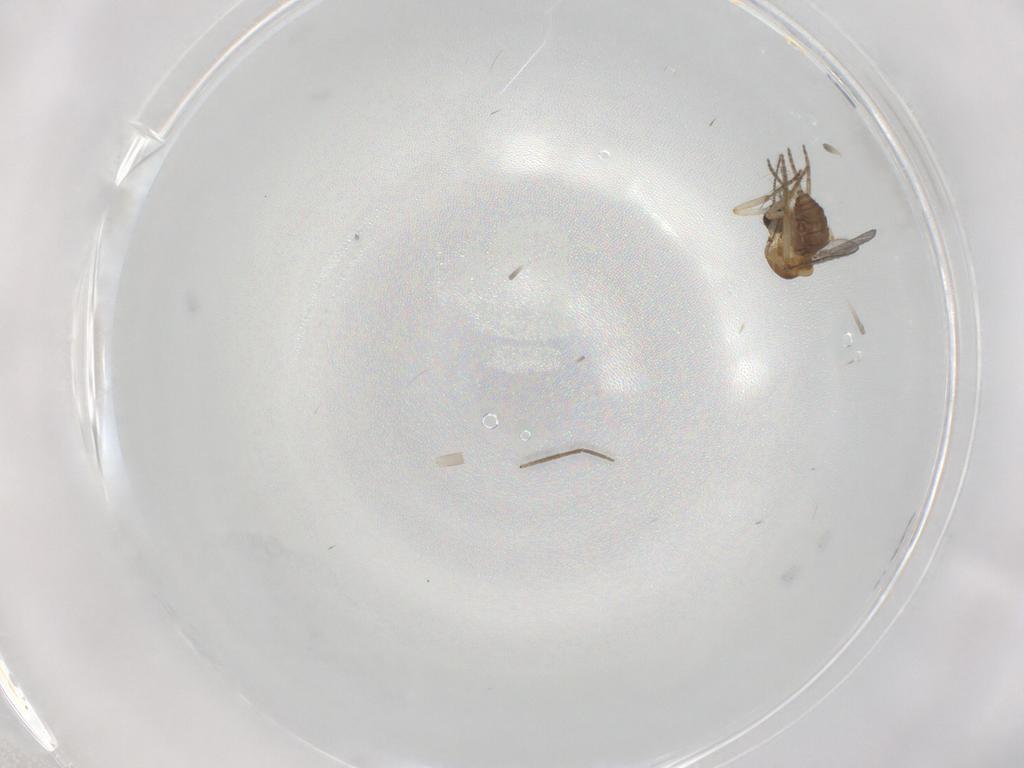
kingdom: Animalia
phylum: Arthropoda
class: Insecta
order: Diptera
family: Chironomidae
